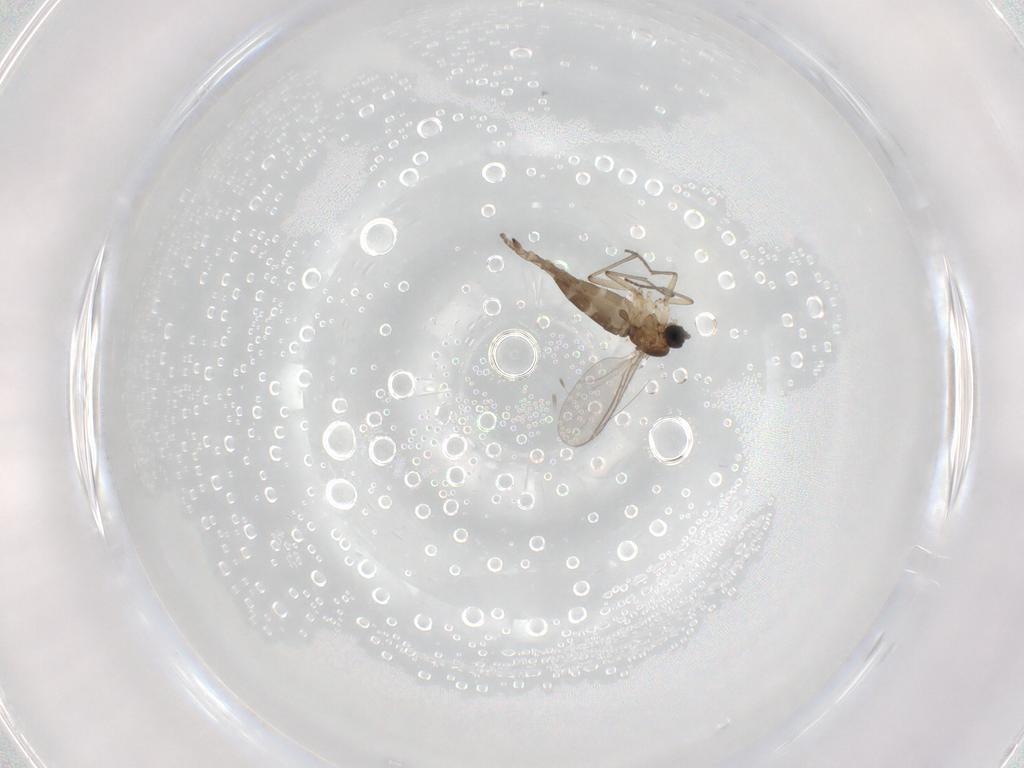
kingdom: Animalia
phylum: Arthropoda
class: Insecta
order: Diptera
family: Sciaridae
